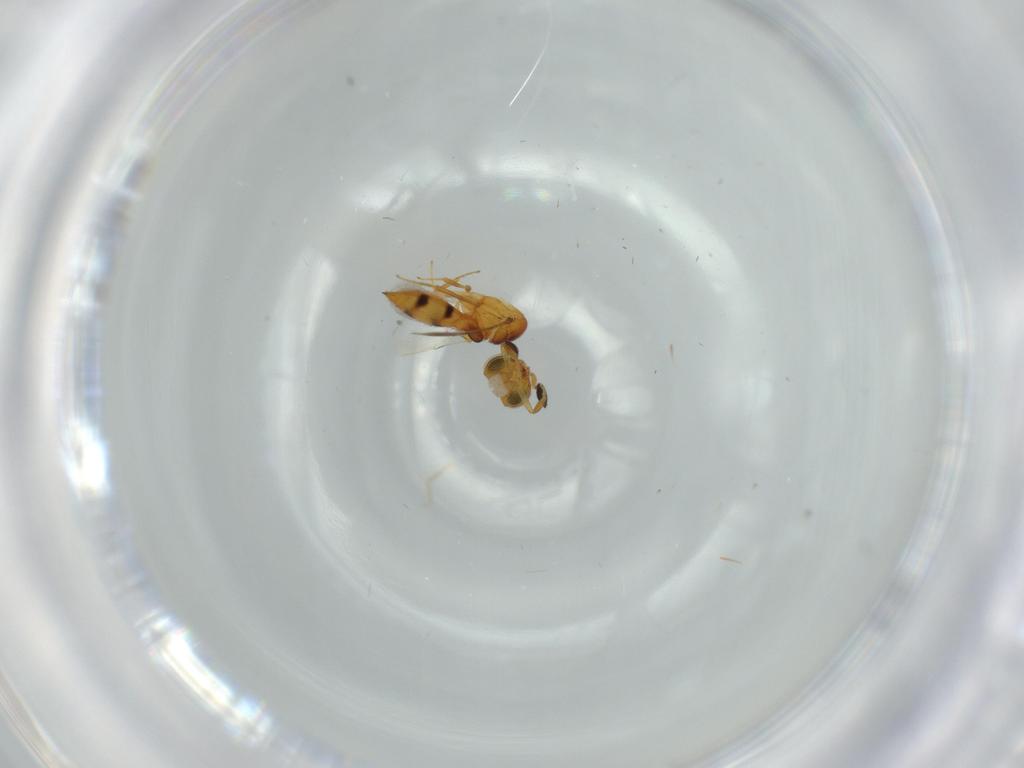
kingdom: Animalia
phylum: Arthropoda
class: Insecta
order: Hymenoptera
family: Scelionidae
